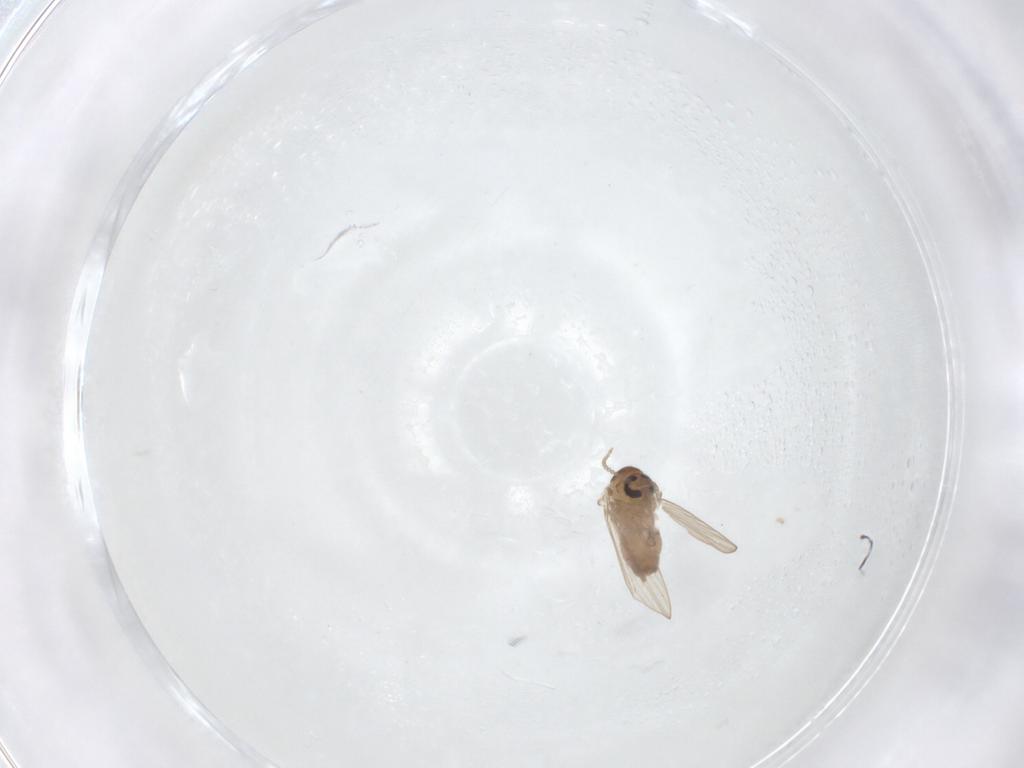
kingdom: Animalia
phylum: Arthropoda
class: Insecta
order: Diptera
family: Psychodidae
